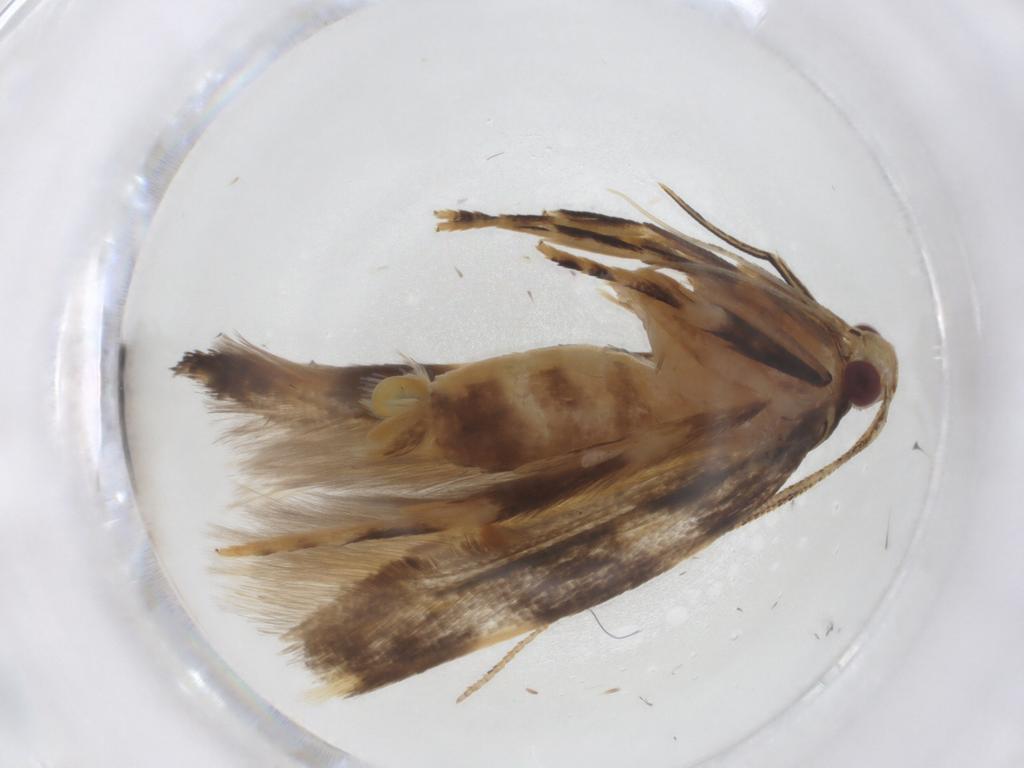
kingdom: Animalia
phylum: Arthropoda
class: Insecta
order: Lepidoptera
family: Cosmopterigidae
